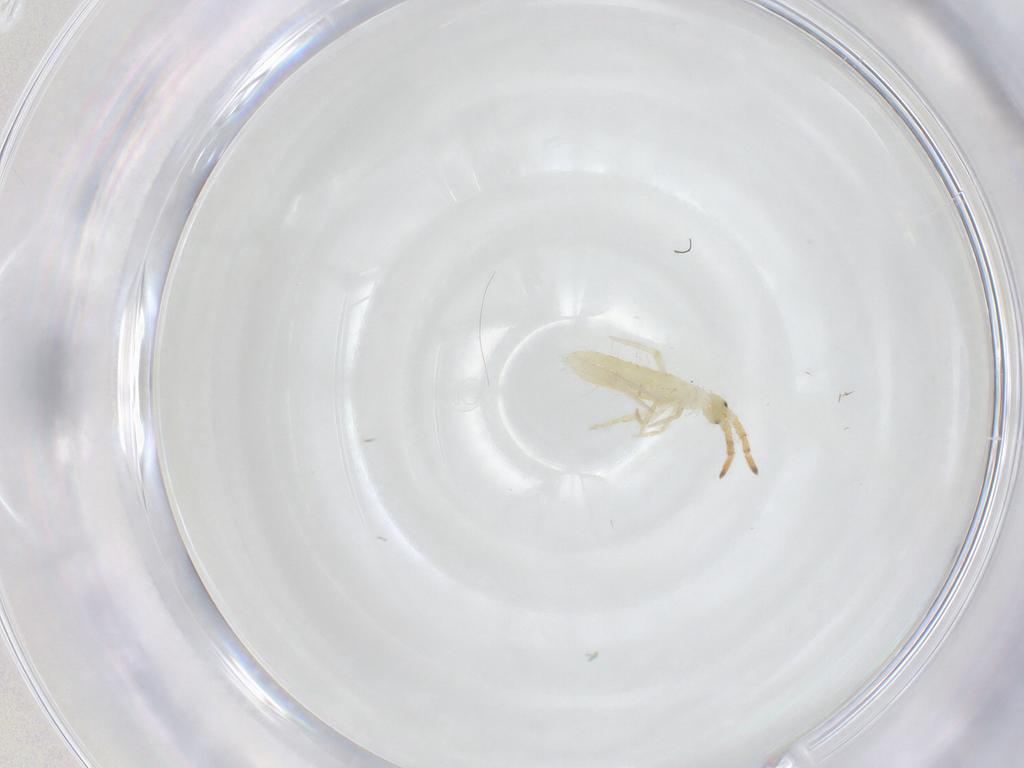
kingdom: Animalia
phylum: Arthropoda
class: Collembola
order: Entomobryomorpha
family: Entomobryidae
